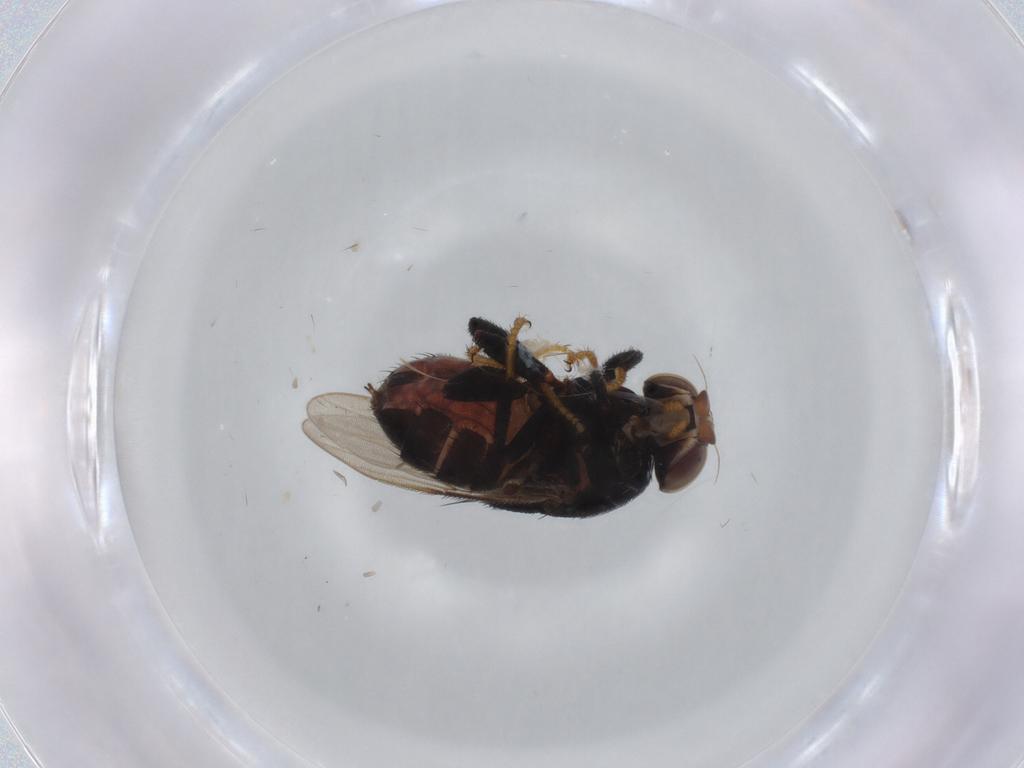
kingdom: Animalia
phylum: Arthropoda
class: Insecta
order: Diptera
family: Chloropidae
